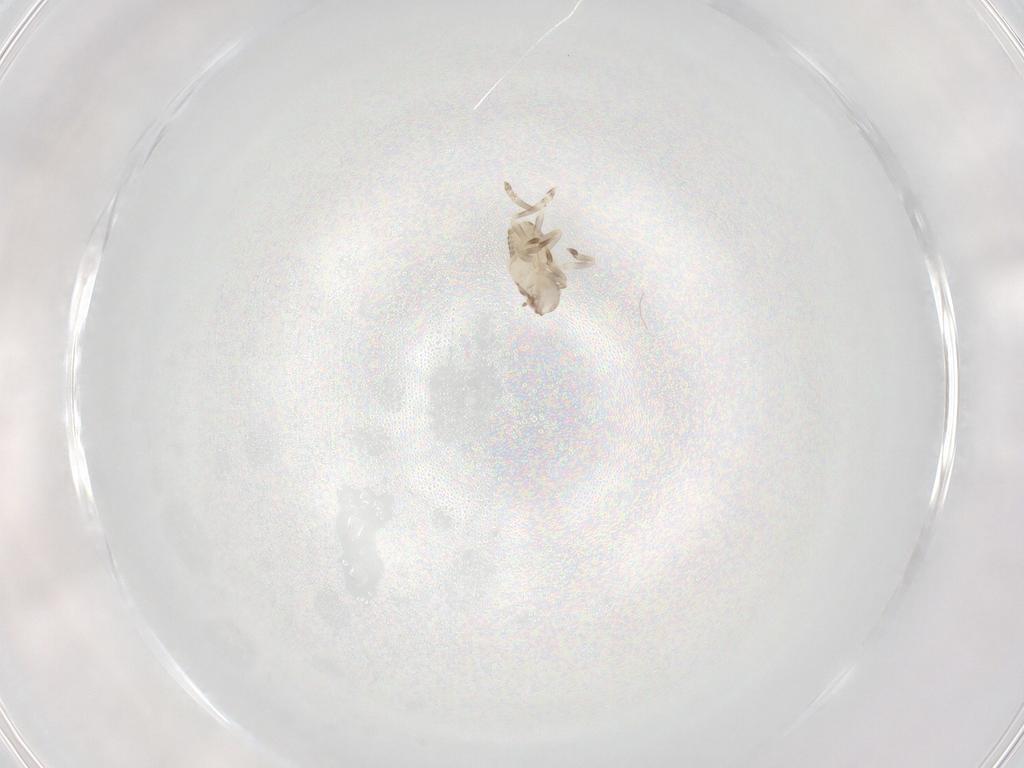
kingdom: Animalia
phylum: Arthropoda
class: Insecta
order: Hemiptera
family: Flatidae
